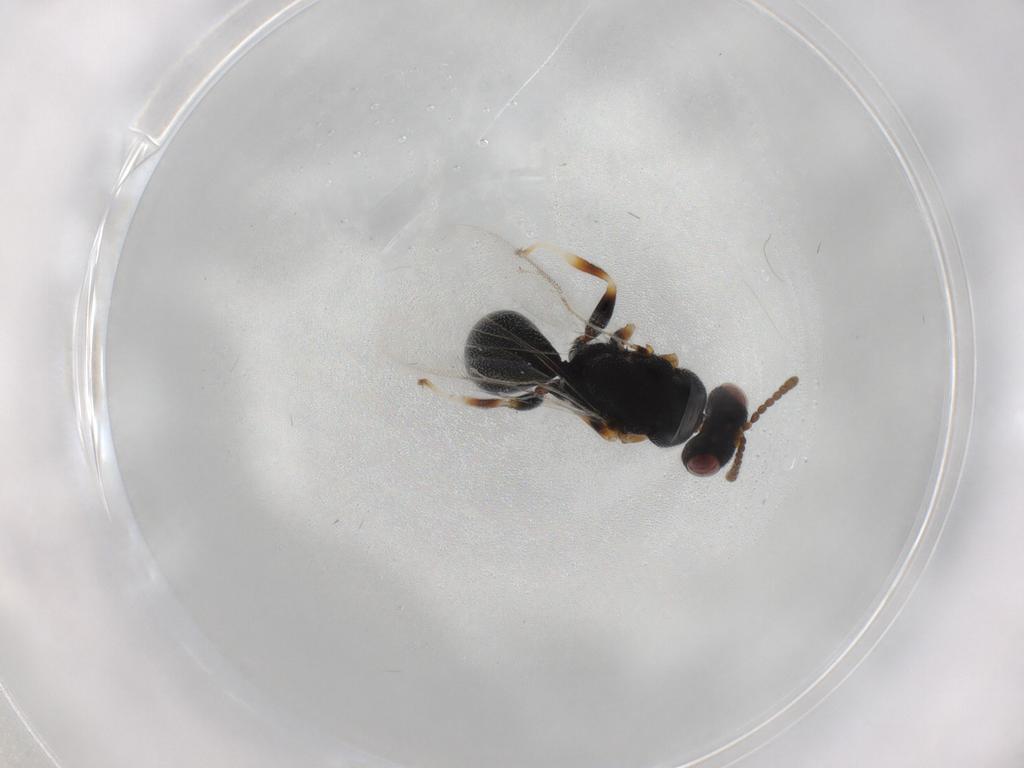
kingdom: Animalia
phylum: Arthropoda
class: Insecta
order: Hymenoptera
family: Eurytomidae
